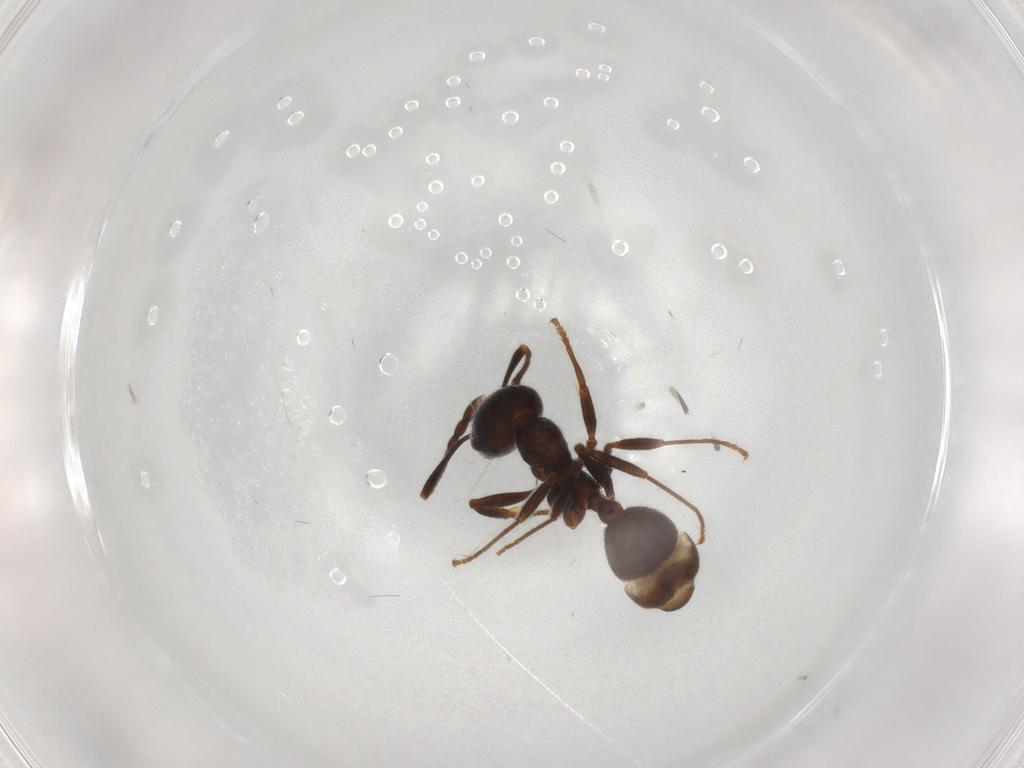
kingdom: Animalia
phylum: Arthropoda
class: Insecta
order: Hymenoptera
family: Formicidae
